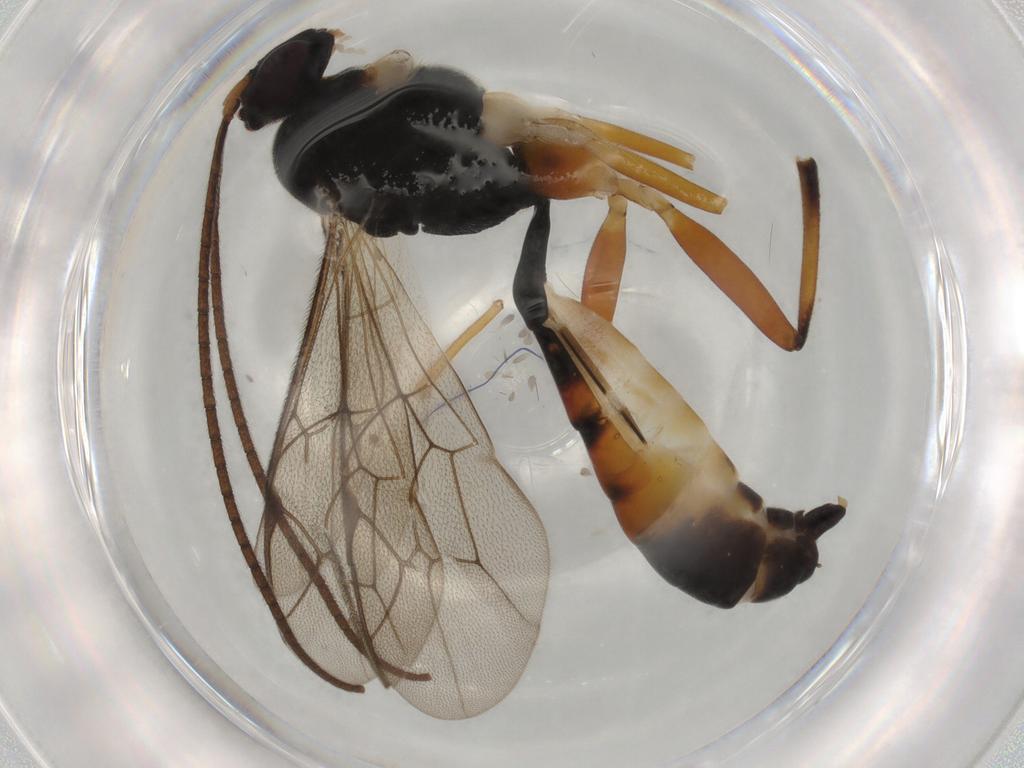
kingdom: Animalia
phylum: Arthropoda
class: Insecta
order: Hymenoptera
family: Ichneumonidae
